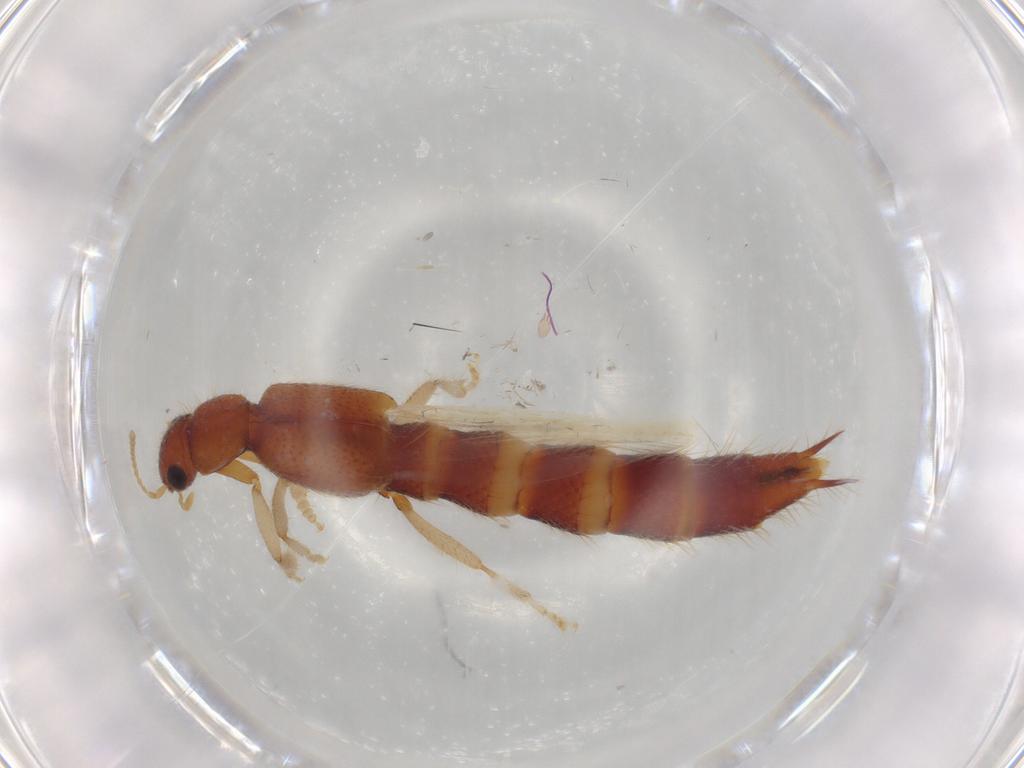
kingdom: Animalia
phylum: Arthropoda
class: Insecta
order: Coleoptera
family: Staphylinidae
